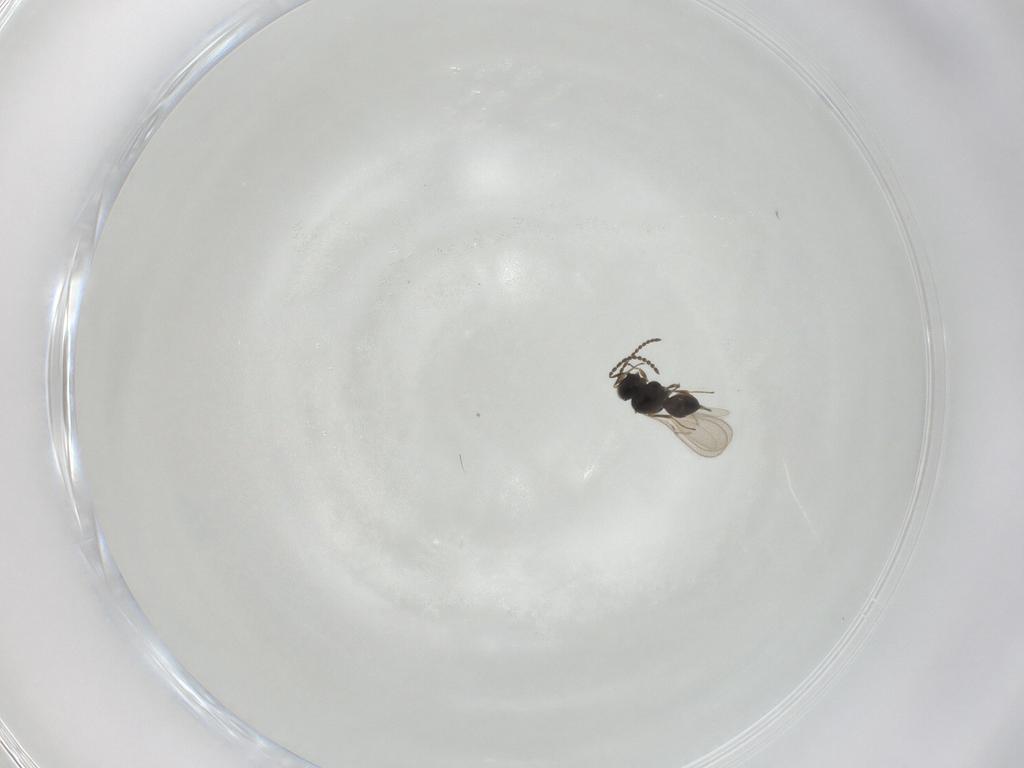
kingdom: Animalia
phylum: Arthropoda
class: Insecta
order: Hymenoptera
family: Scelionidae
